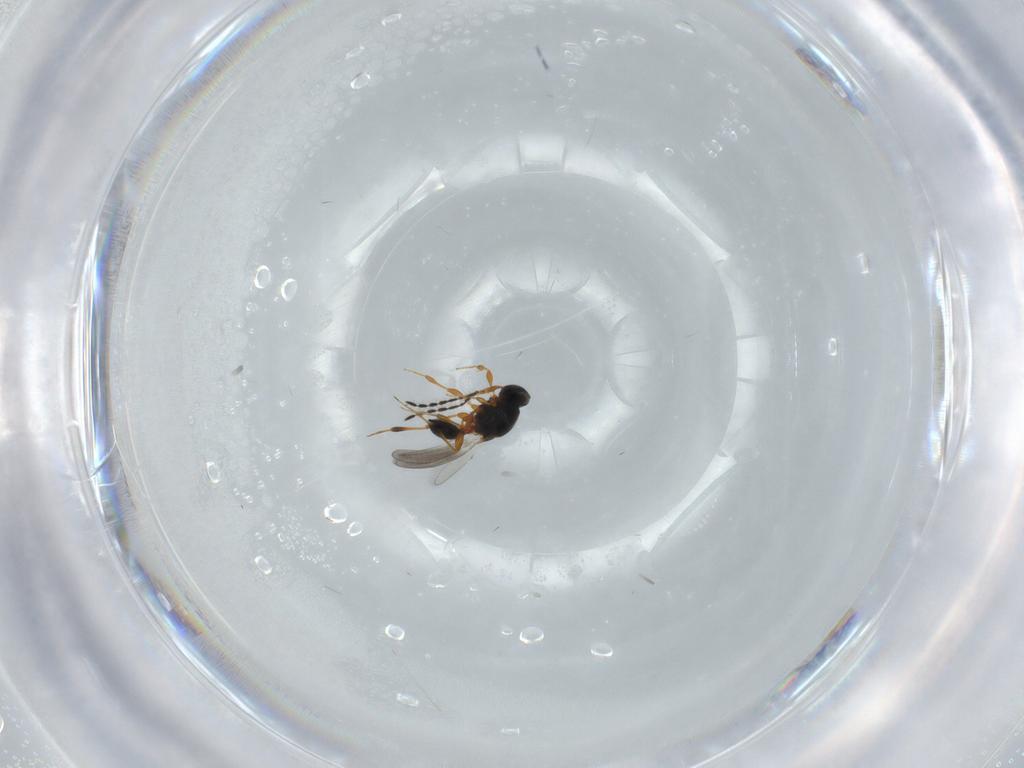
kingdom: Animalia
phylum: Arthropoda
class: Insecta
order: Hymenoptera
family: Platygastridae
